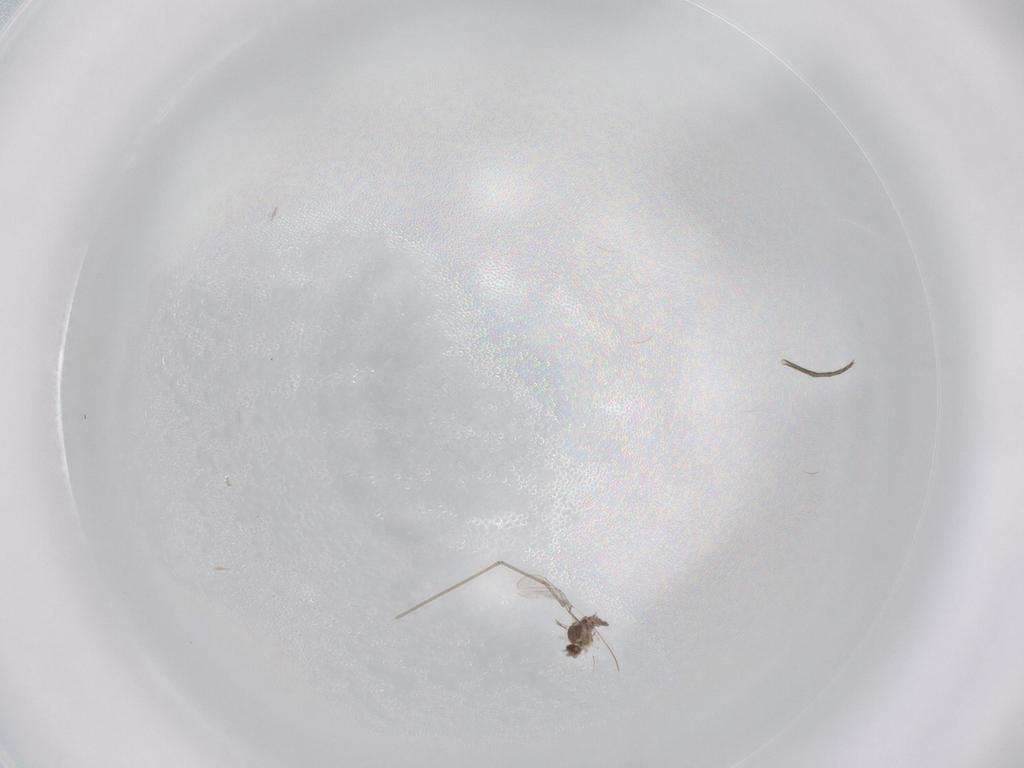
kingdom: Animalia
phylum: Arthropoda
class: Insecta
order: Diptera
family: Cecidomyiidae
